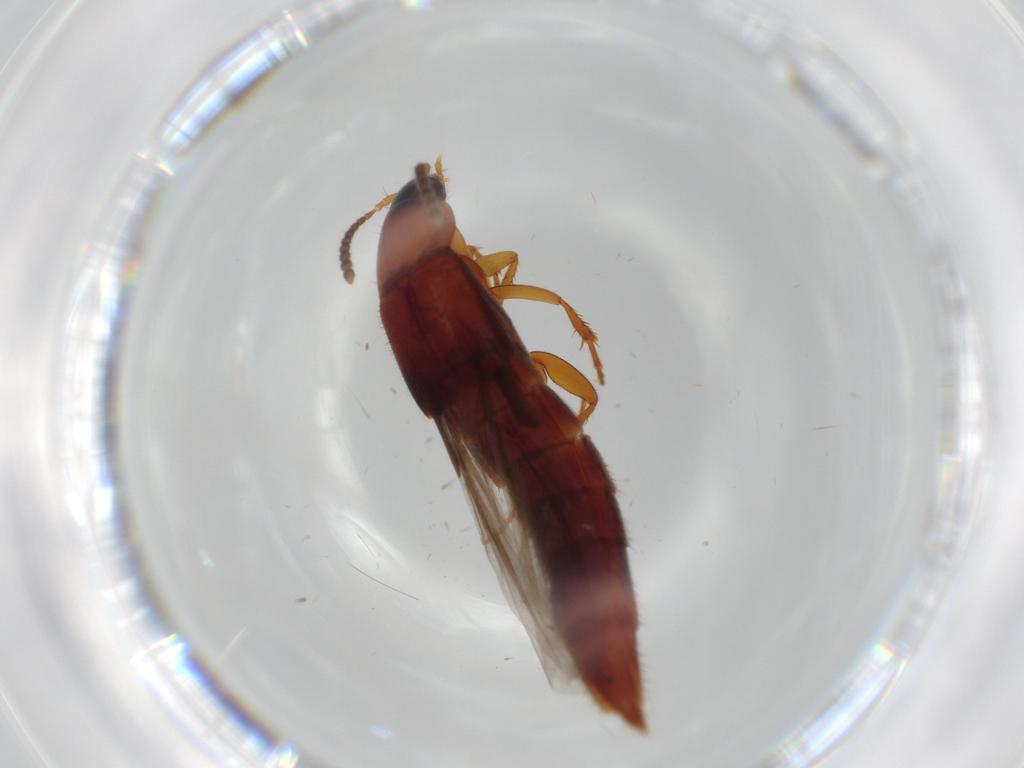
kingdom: Animalia
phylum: Arthropoda
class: Insecta
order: Coleoptera
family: Staphylinidae
